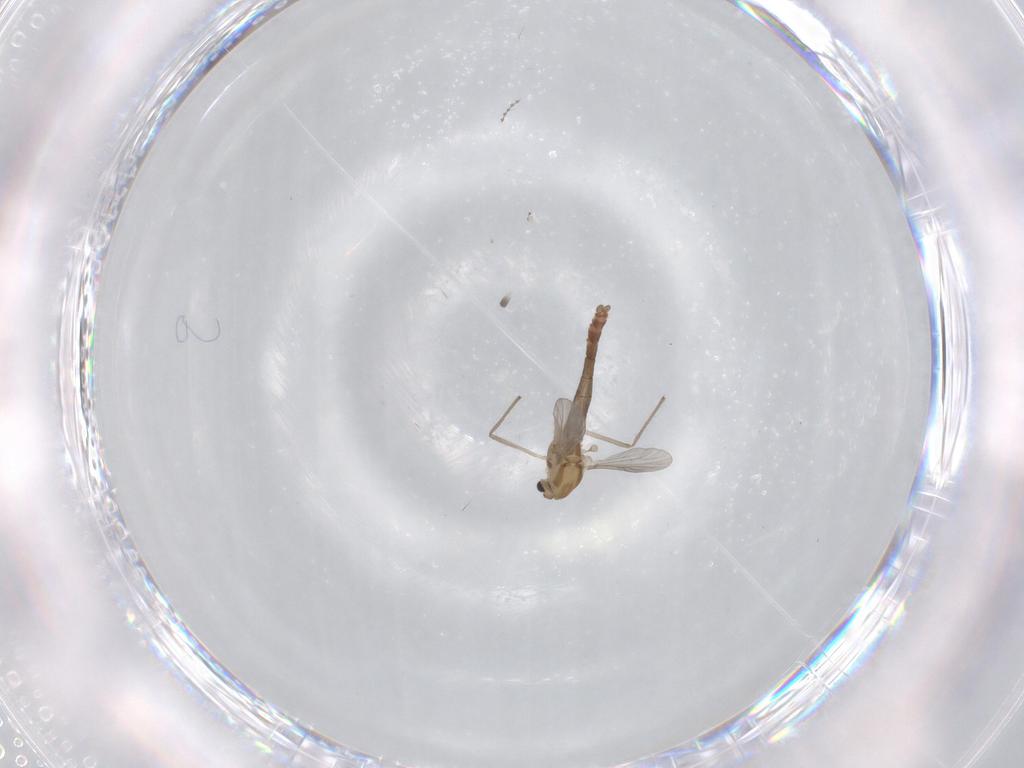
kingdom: Animalia
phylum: Arthropoda
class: Insecta
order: Diptera
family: Chironomidae
